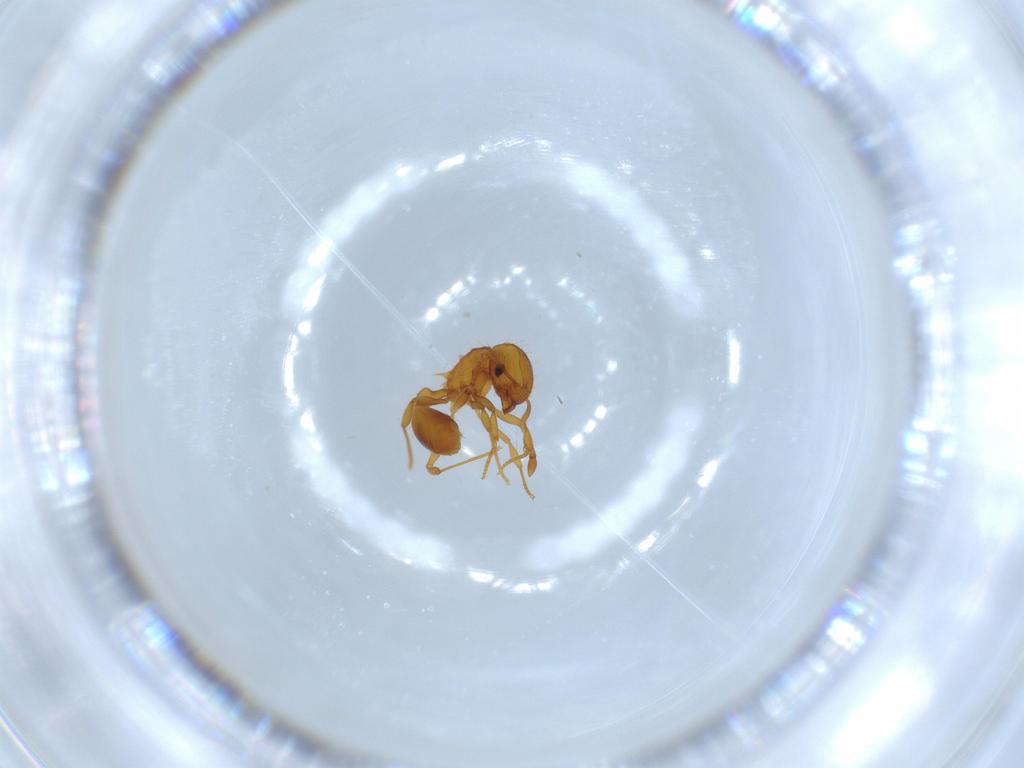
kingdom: Animalia
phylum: Arthropoda
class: Insecta
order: Hymenoptera
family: Formicidae
